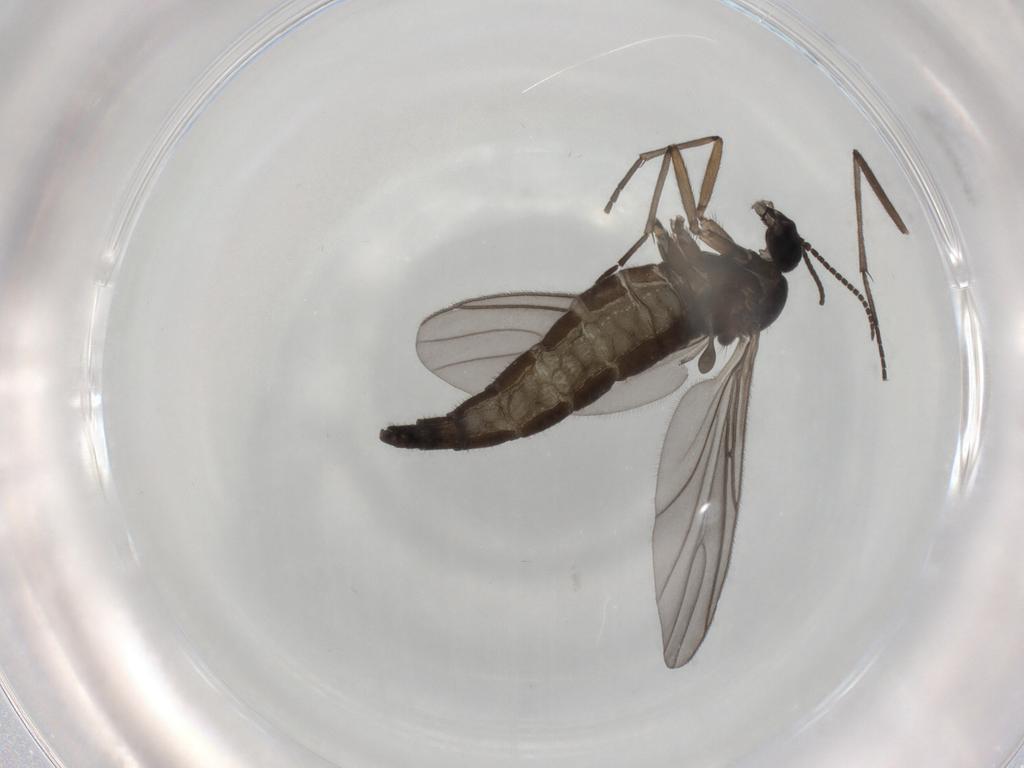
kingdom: Animalia
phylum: Arthropoda
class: Insecta
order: Diptera
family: Sciaridae
